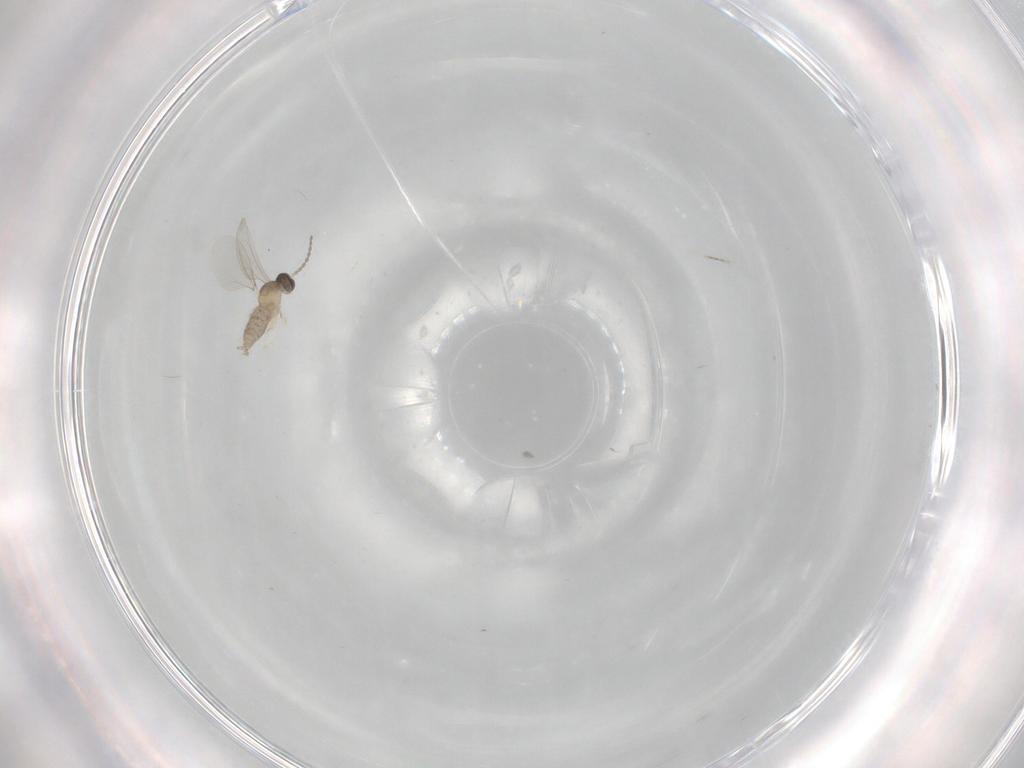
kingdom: Animalia
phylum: Arthropoda
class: Insecta
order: Diptera
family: Cecidomyiidae
